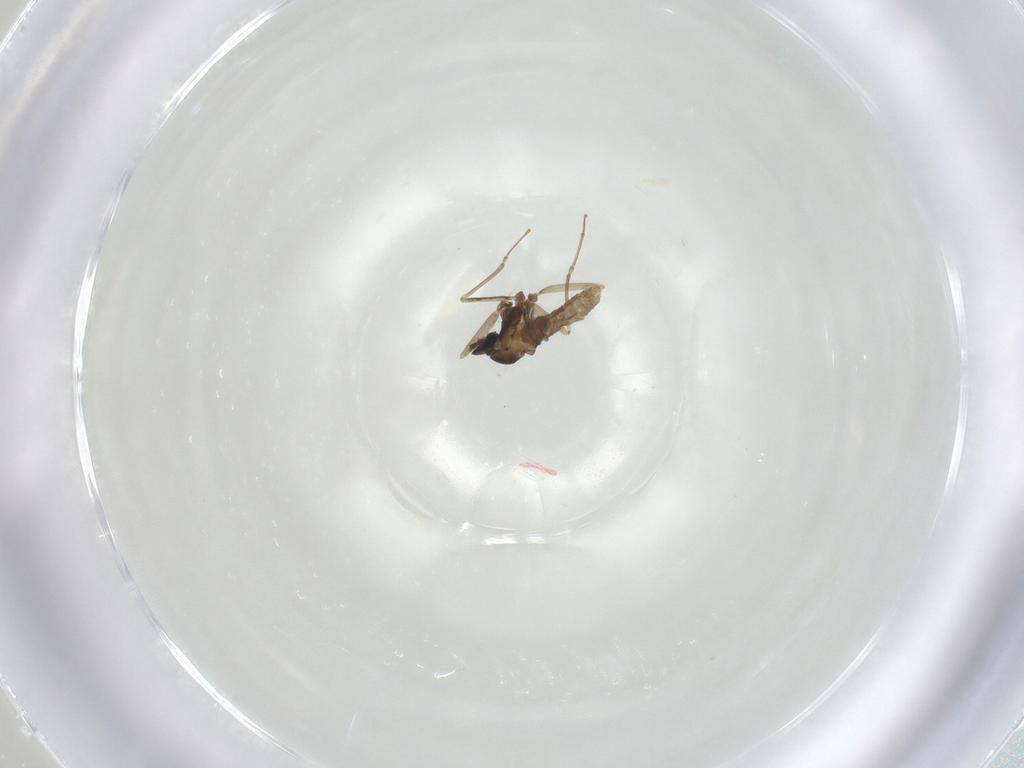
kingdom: Animalia
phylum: Arthropoda
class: Insecta
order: Diptera
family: Cecidomyiidae
